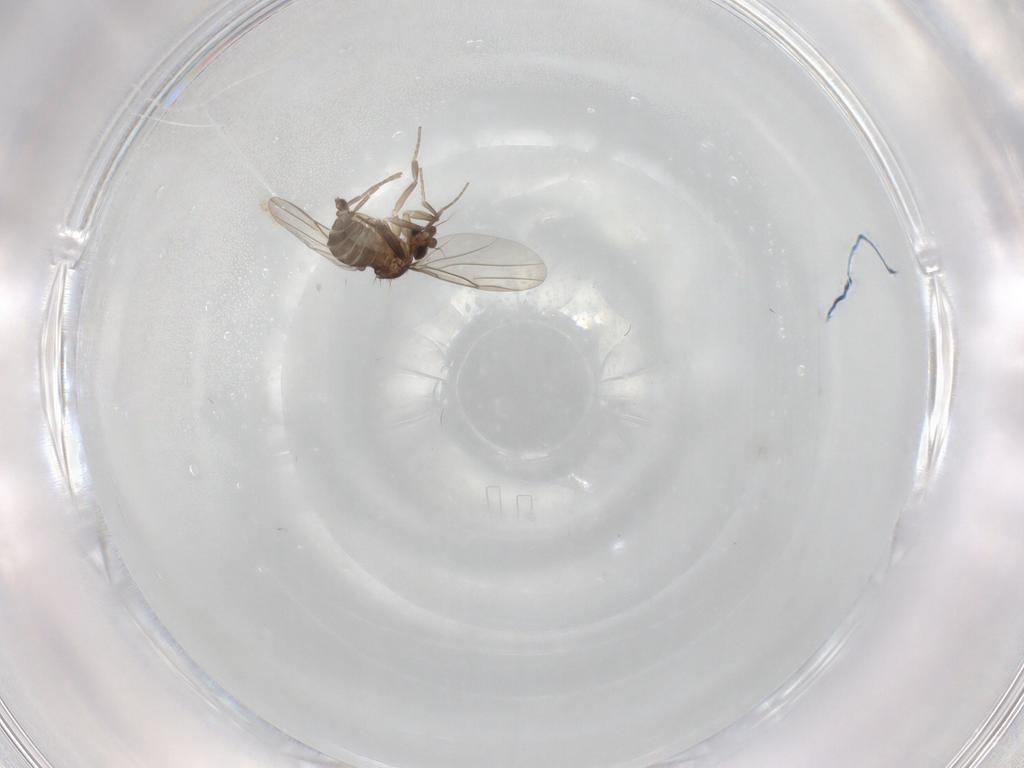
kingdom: Animalia
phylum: Arthropoda
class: Insecta
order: Diptera
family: Phoridae
